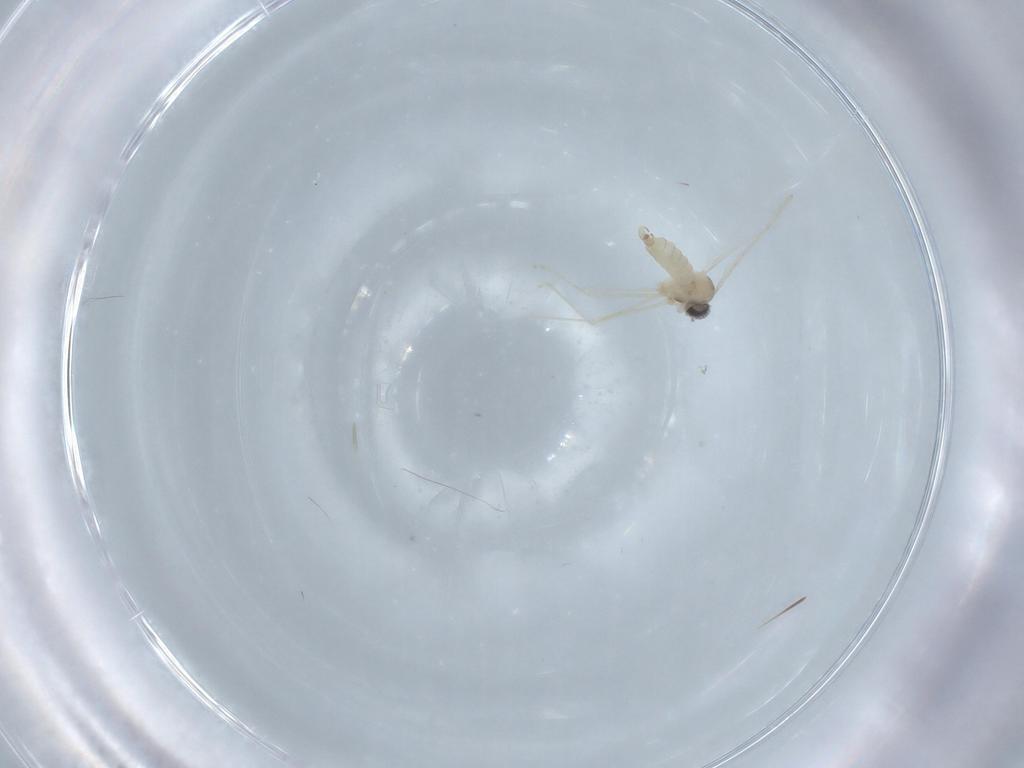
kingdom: Animalia
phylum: Arthropoda
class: Insecta
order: Diptera
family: Cecidomyiidae
